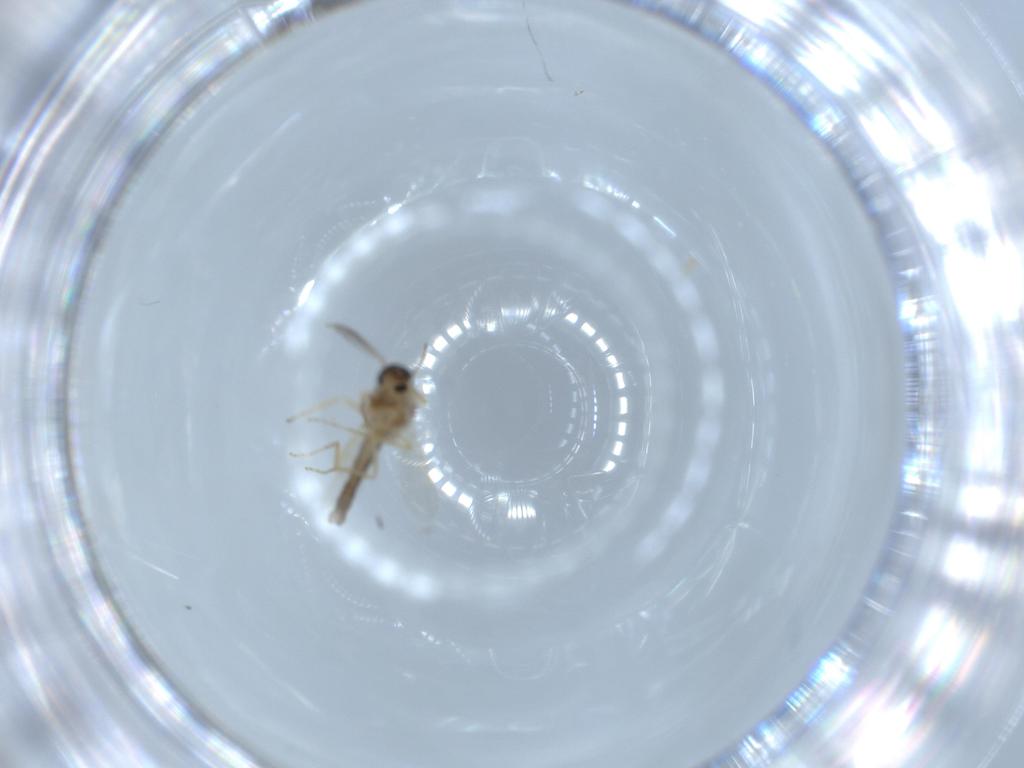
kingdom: Animalia
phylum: Arthropoda
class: Insecta
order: Diptera
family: Ceratopogonidae
